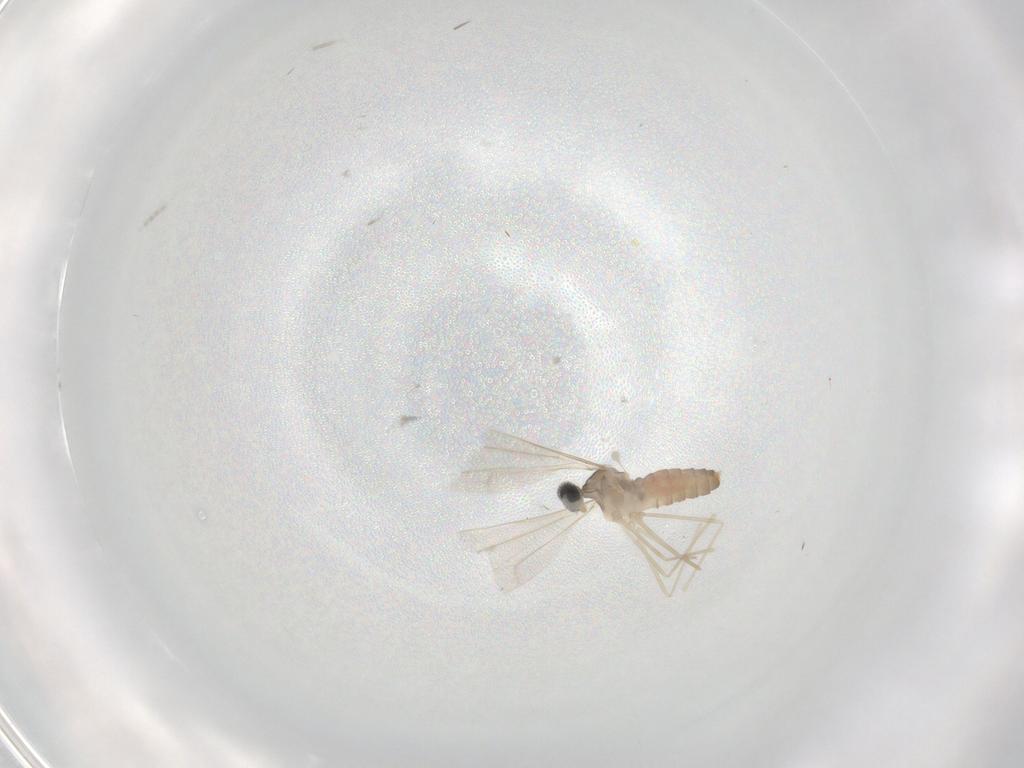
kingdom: Animalia
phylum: Arthropoda
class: Insecta
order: Diptera
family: Cecidomyiidae
